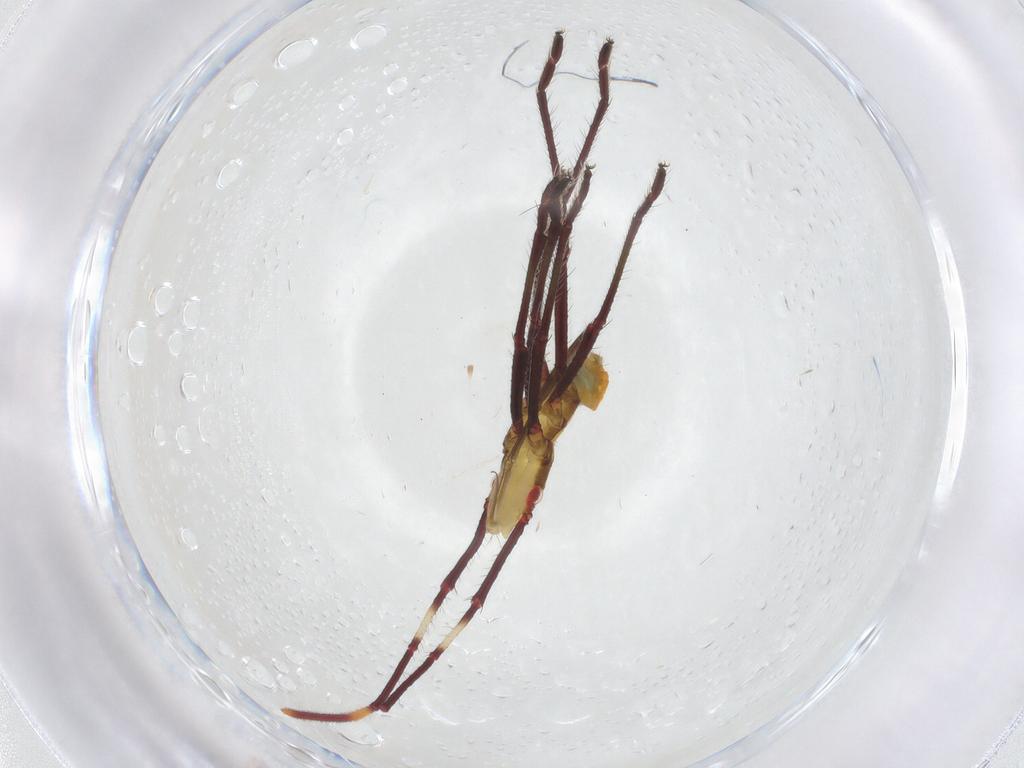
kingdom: Animalia
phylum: Arthropoda
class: Insecta
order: Hemiptera
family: Alydidae
